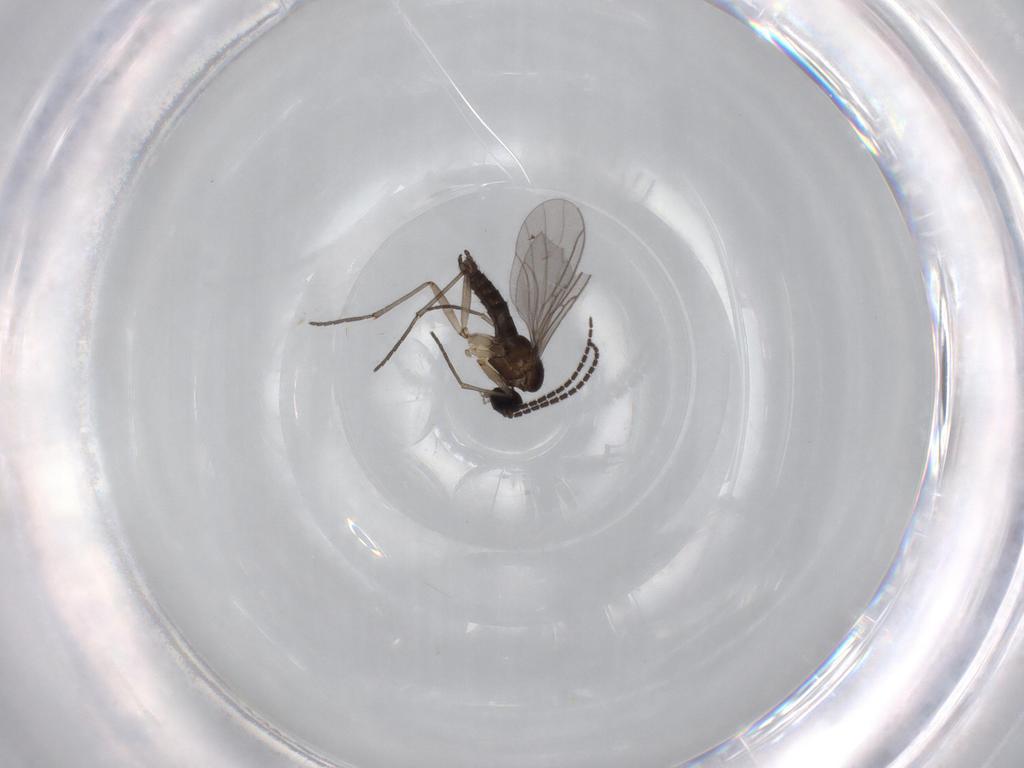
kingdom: Animalia
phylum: Arthropoda
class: Insecta
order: Diptera
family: Sciaridae
